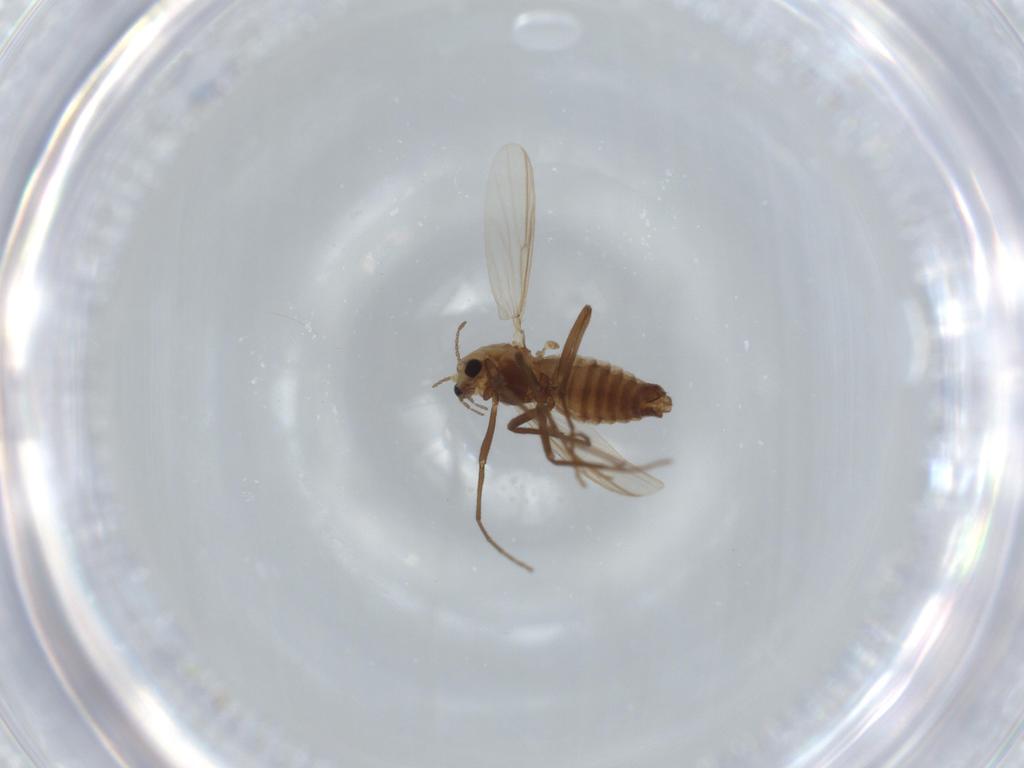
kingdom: Animalia
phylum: Arthropoda
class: Insecta
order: Diptera
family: Chironomidae
